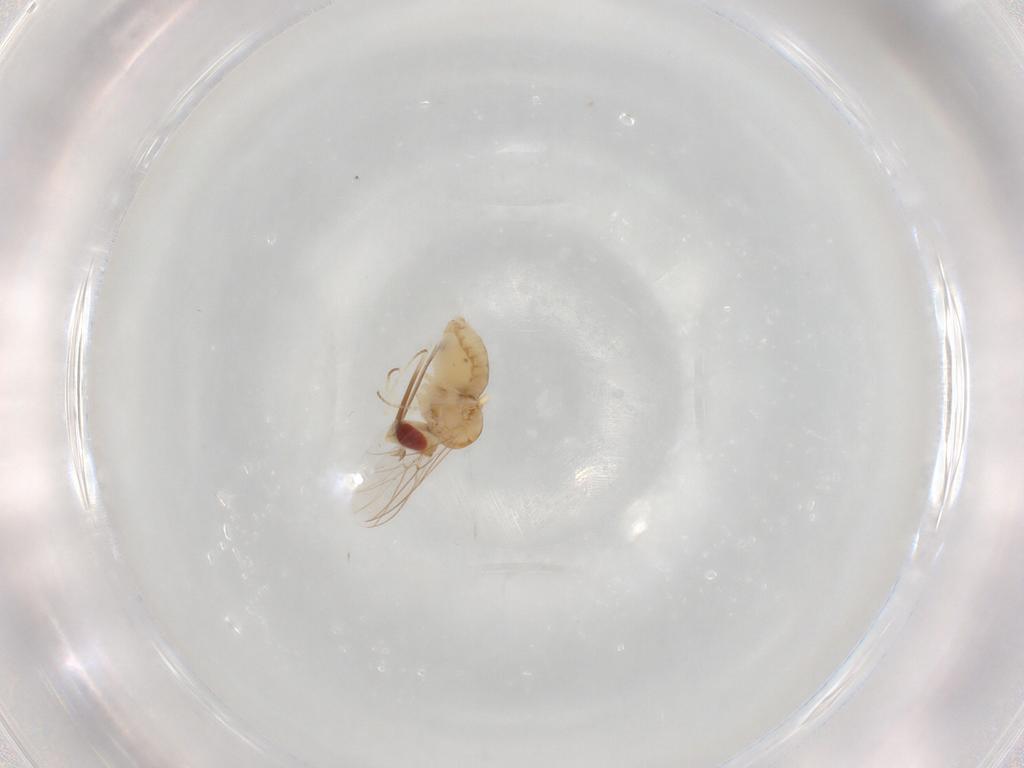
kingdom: Animalia
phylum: Arthropoda
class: Insecta
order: Diptera
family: Bombyliidae
